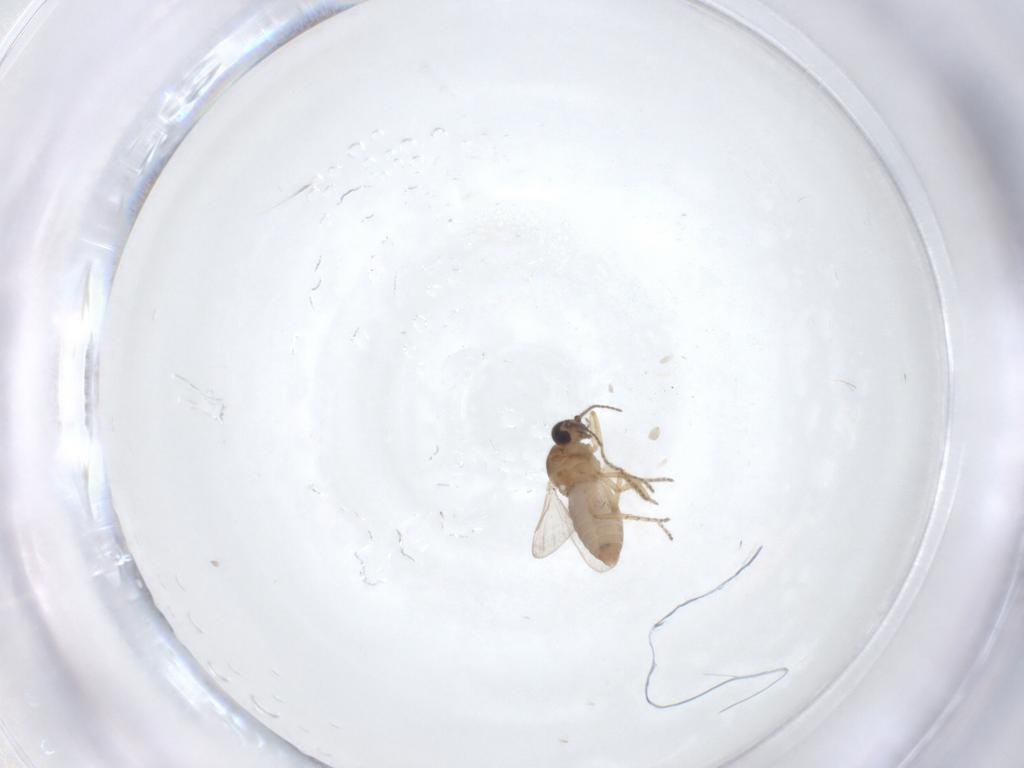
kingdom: Animalia
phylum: Arthropoda
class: Insecta
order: Diptera
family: Ceratopogonidae
